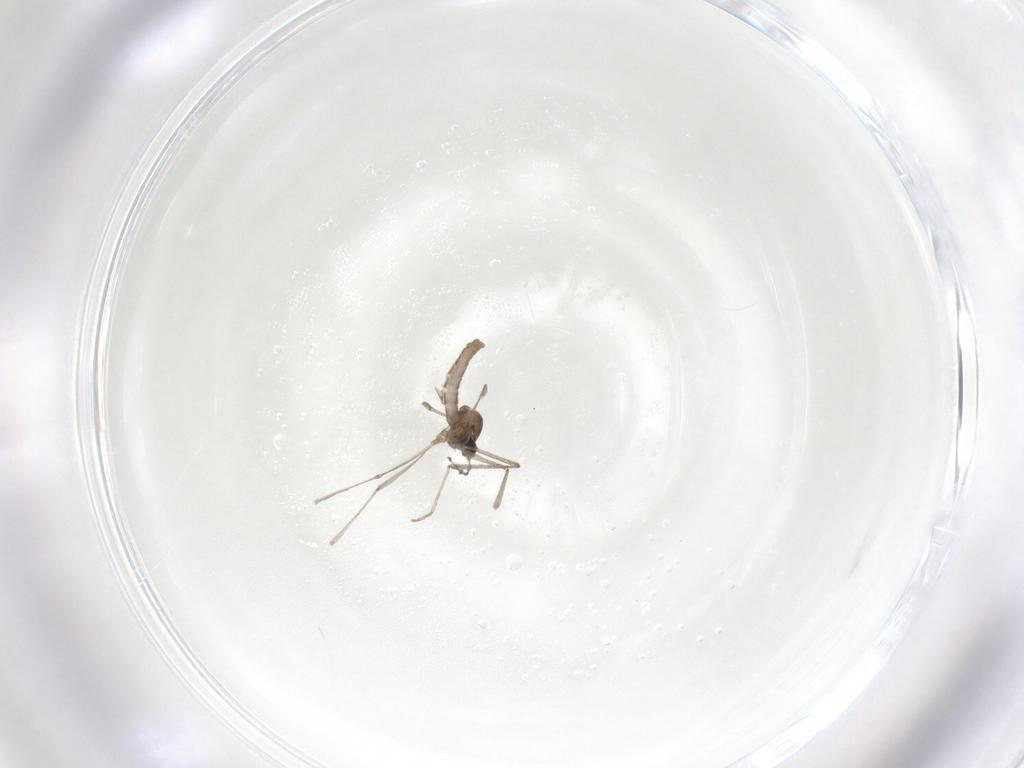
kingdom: Animalia
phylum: Arthropoda
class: Insecta
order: Diptera
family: Cecidomyiidae
